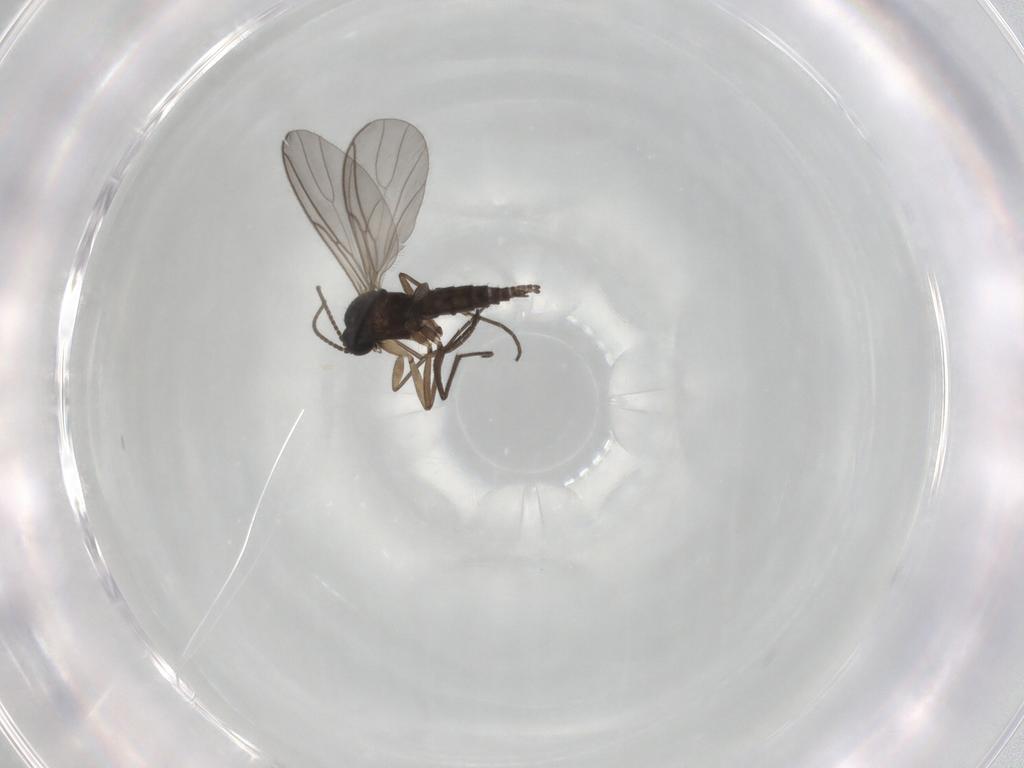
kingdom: Animalia
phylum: Arthropoda
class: Insecta
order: Diptera
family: Sciaridae
